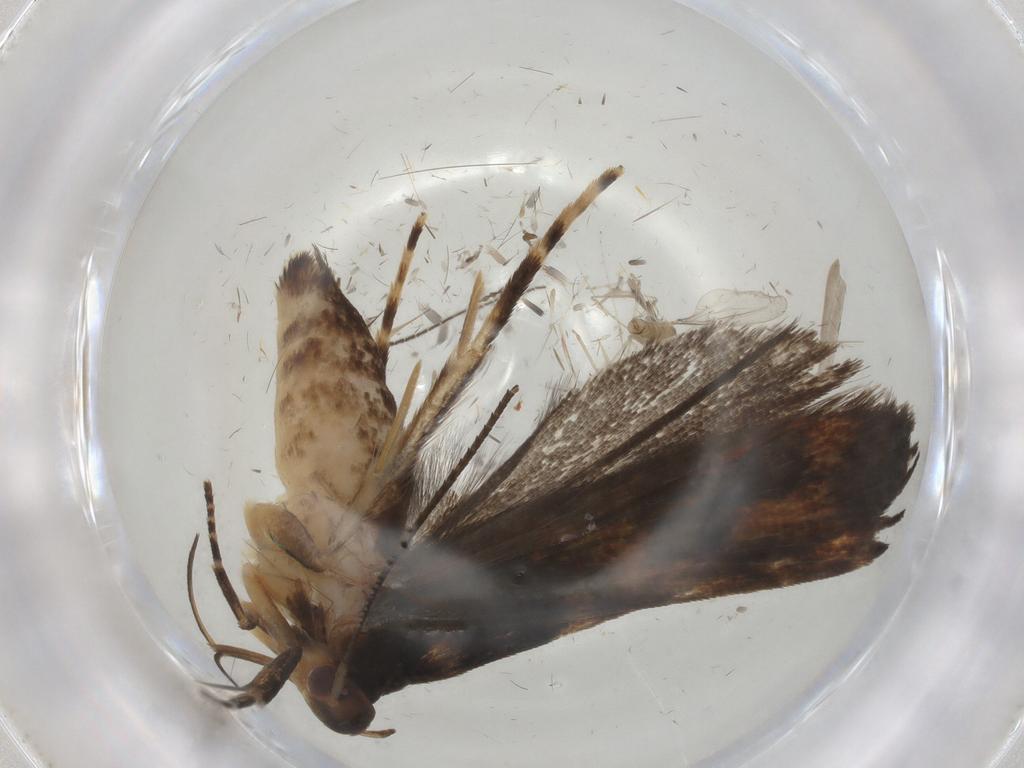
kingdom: Animalia
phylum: Arthropoda
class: Insecta
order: Lepidoptera
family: Crambidae
